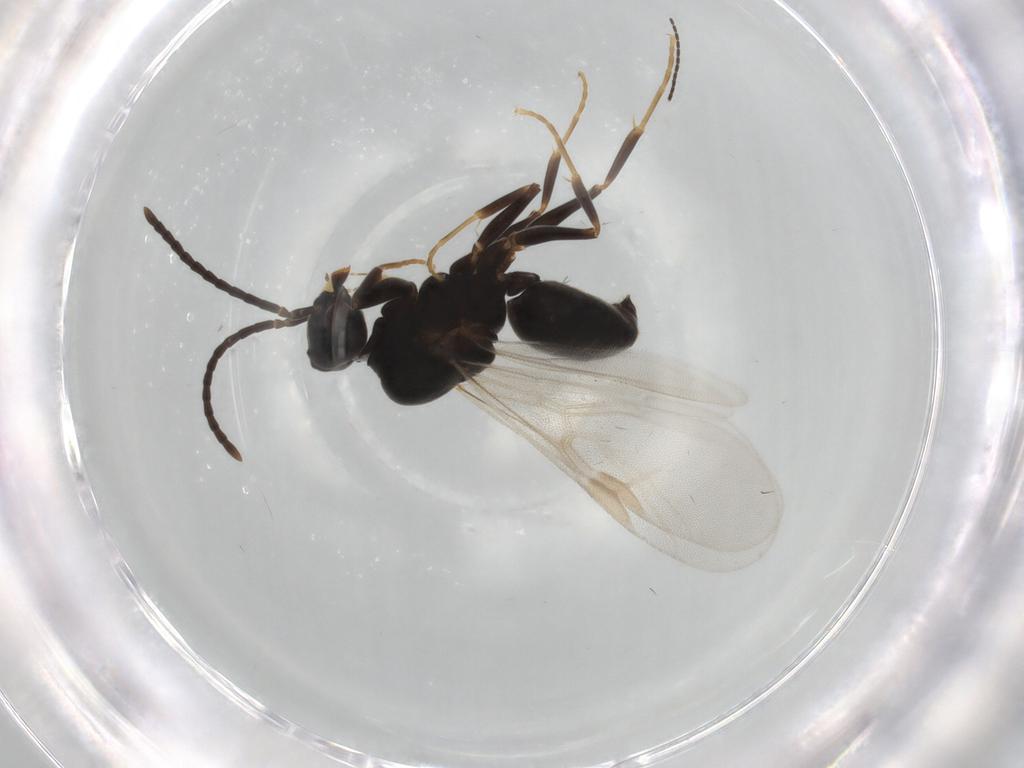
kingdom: Animalia
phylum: Arthropoda
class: Insecta
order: Hymenoptera
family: Formicidae
